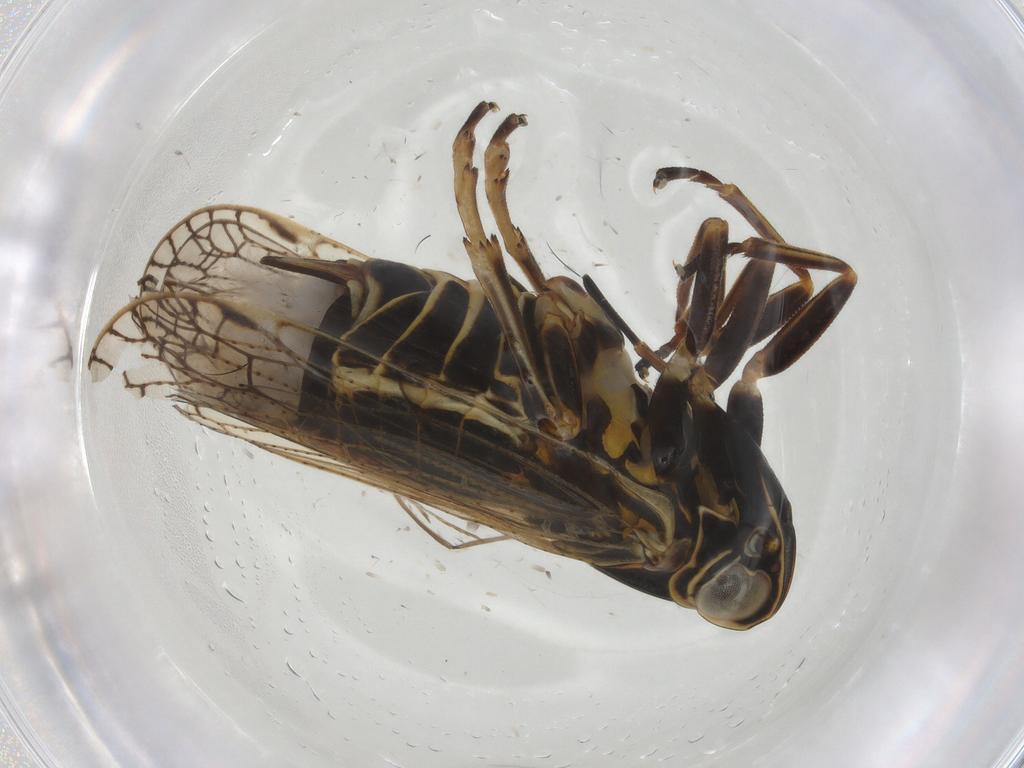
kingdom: Animalia
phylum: Arthropoda
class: Insecta
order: Hemiptera
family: Cixiidae
